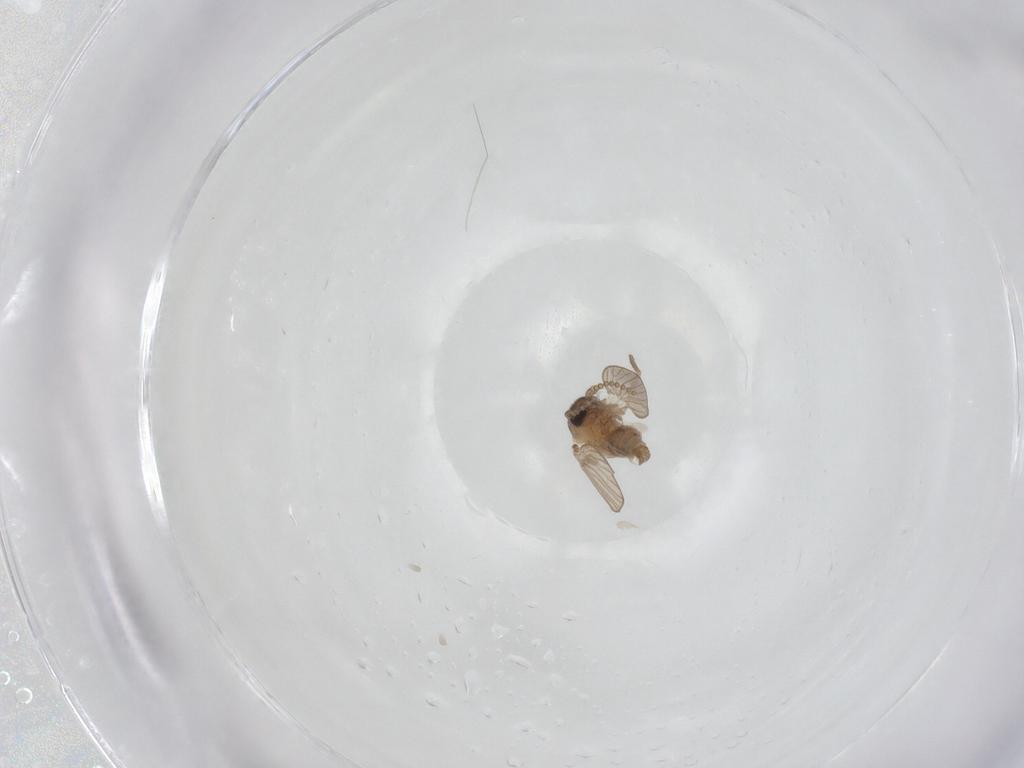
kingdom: Animalia
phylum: Arthropoda
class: Insecta
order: Diptera
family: Psychodidae
